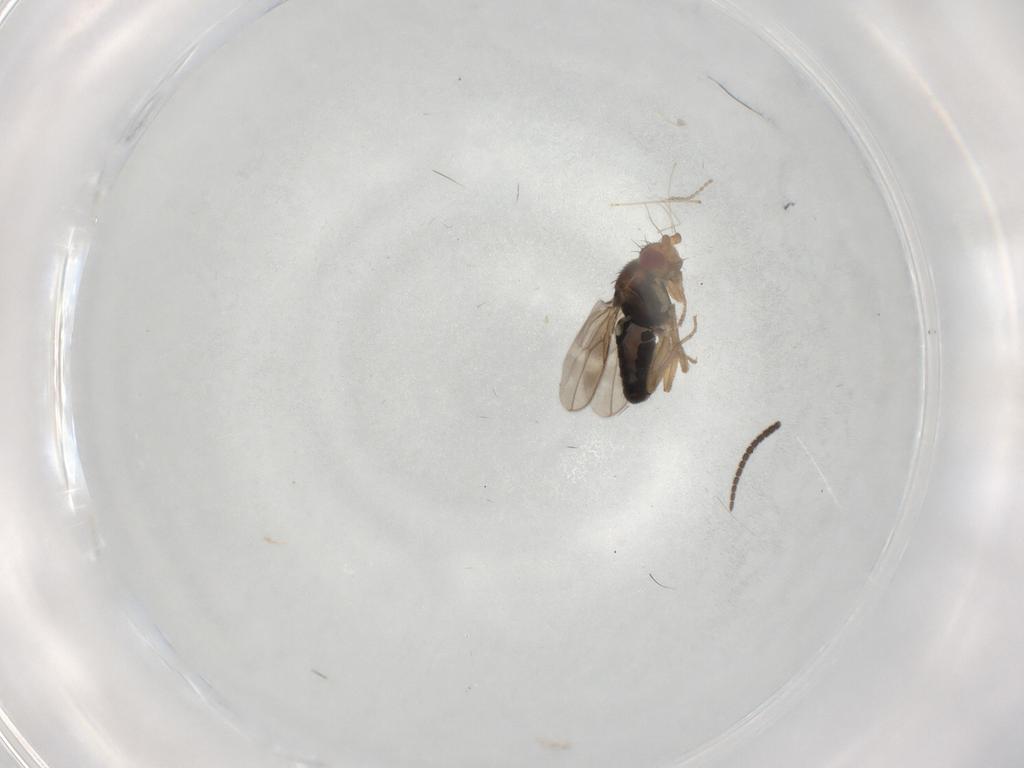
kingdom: Animalia
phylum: Arthropoda
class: Insecta
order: Diptera
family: Sphaeroceridae
